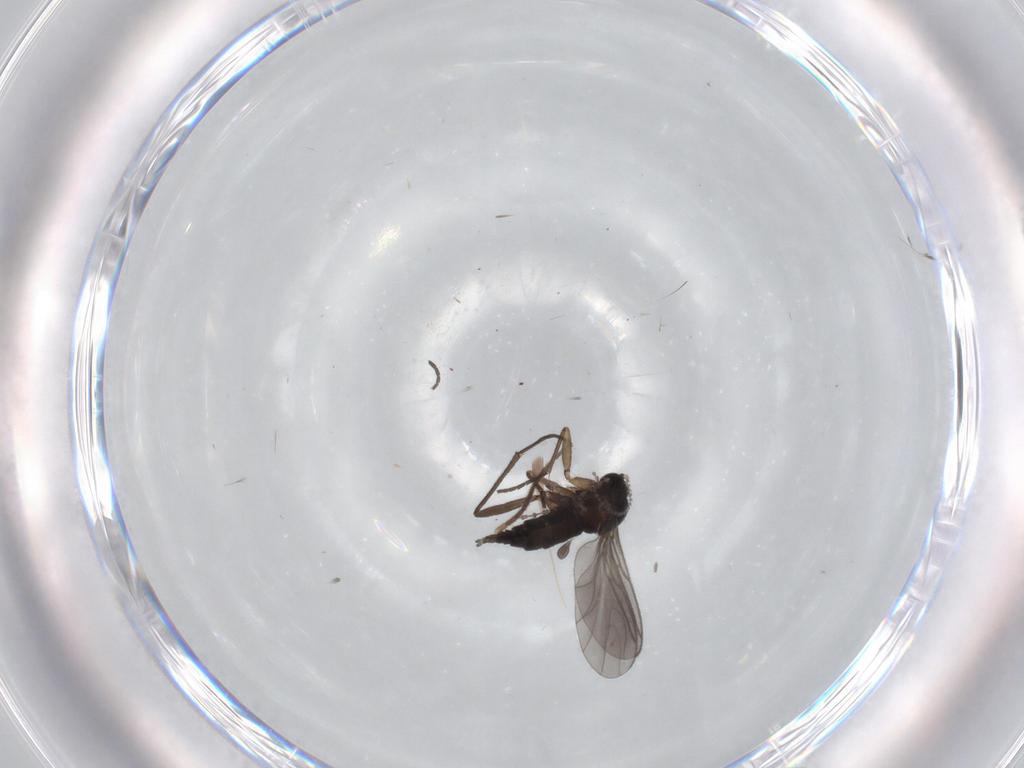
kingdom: Animalia
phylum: Arthropoda
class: Insecta
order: Diptera
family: Sciaridae
